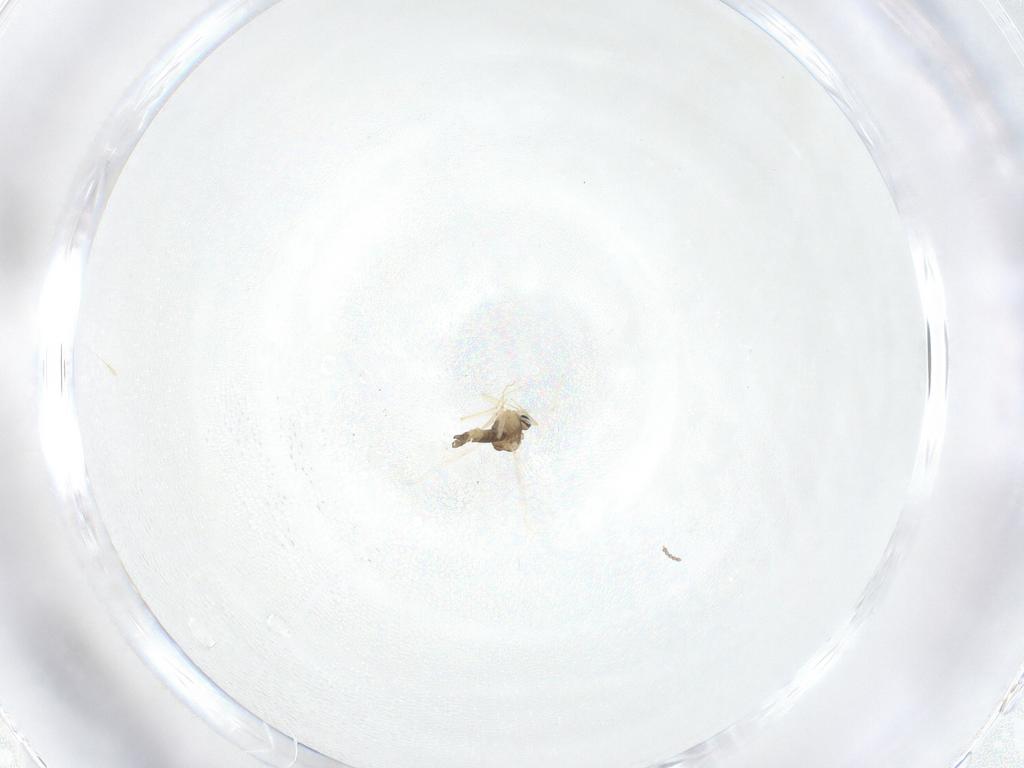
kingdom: Animalia
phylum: Arthropoda
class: Insecta
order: Diptera
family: Chironomidae
